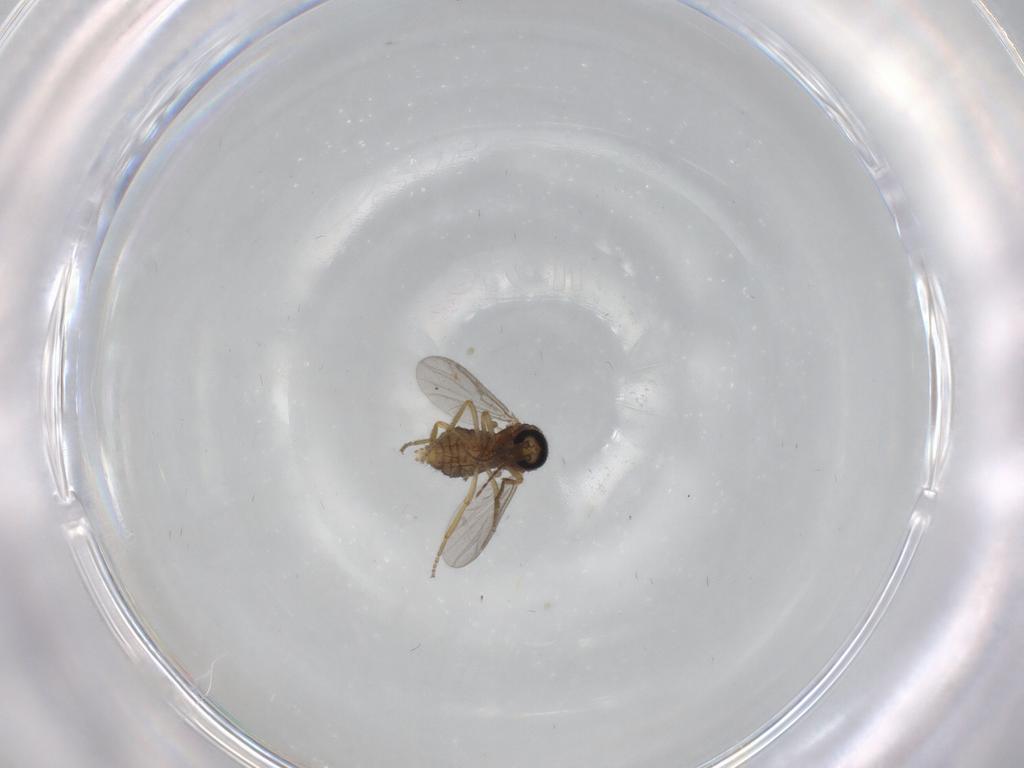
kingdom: Animalia
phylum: Arthropoda
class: Insecta
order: Diptera
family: Ceratopogonidae
